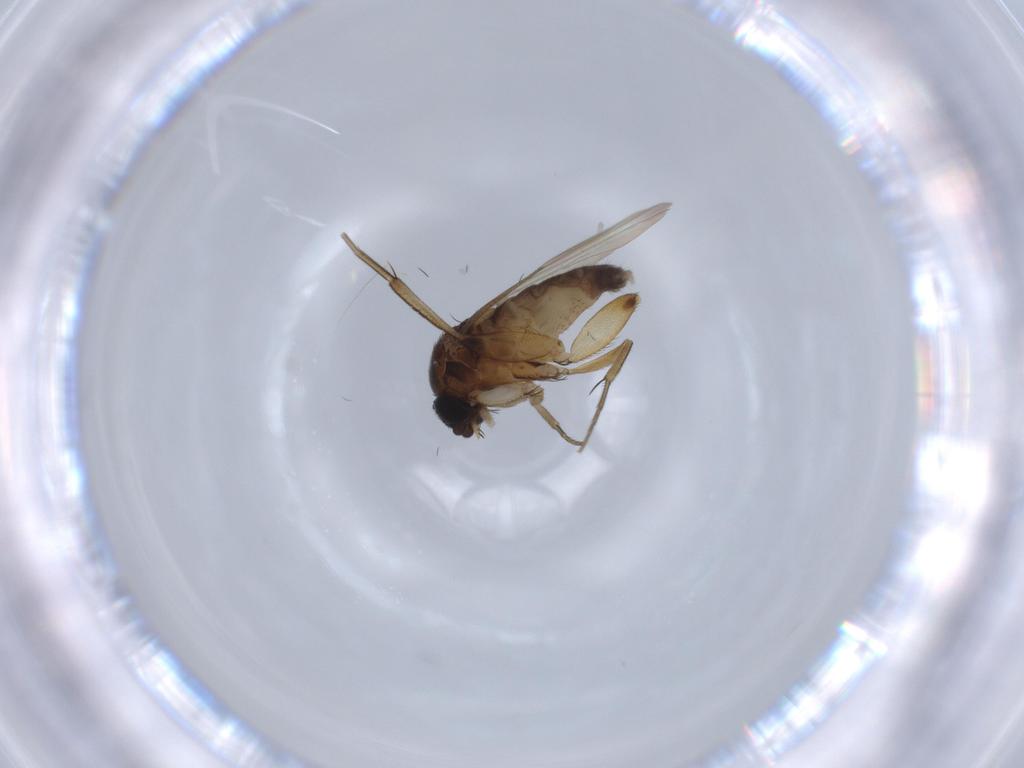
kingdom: Animalia
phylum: Arthropoda
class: Insecta
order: Diptera
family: Phoridae
